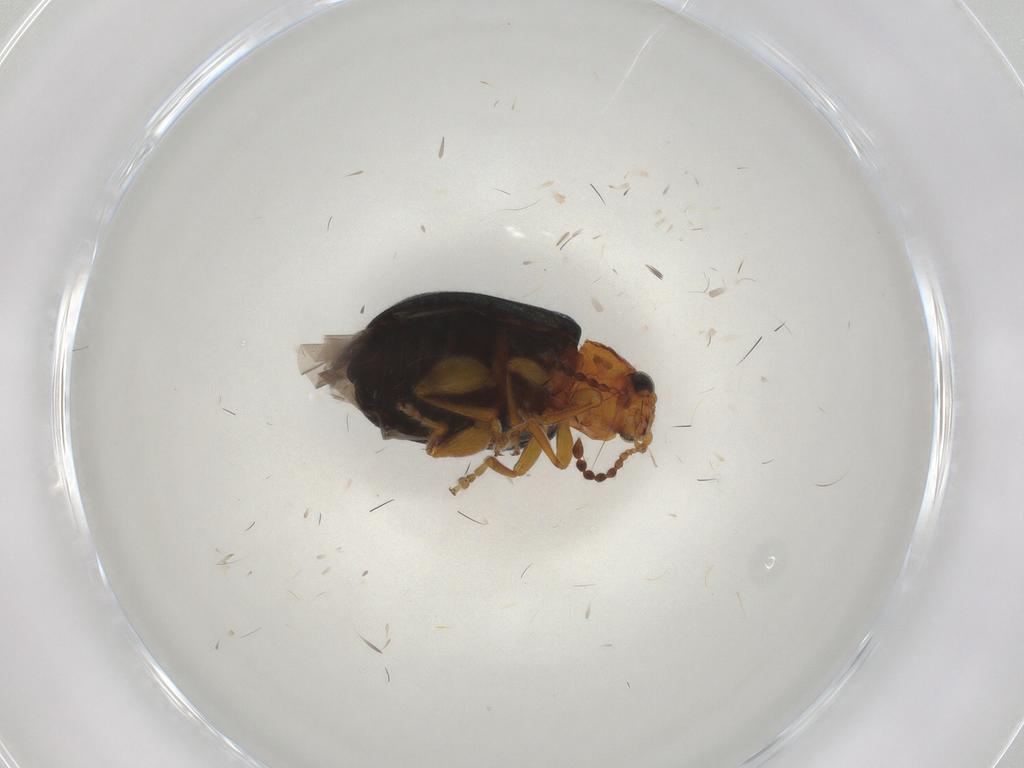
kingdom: Animalia
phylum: Arthropoda
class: Insecta
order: Coleoptera
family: Chrysomelidae
